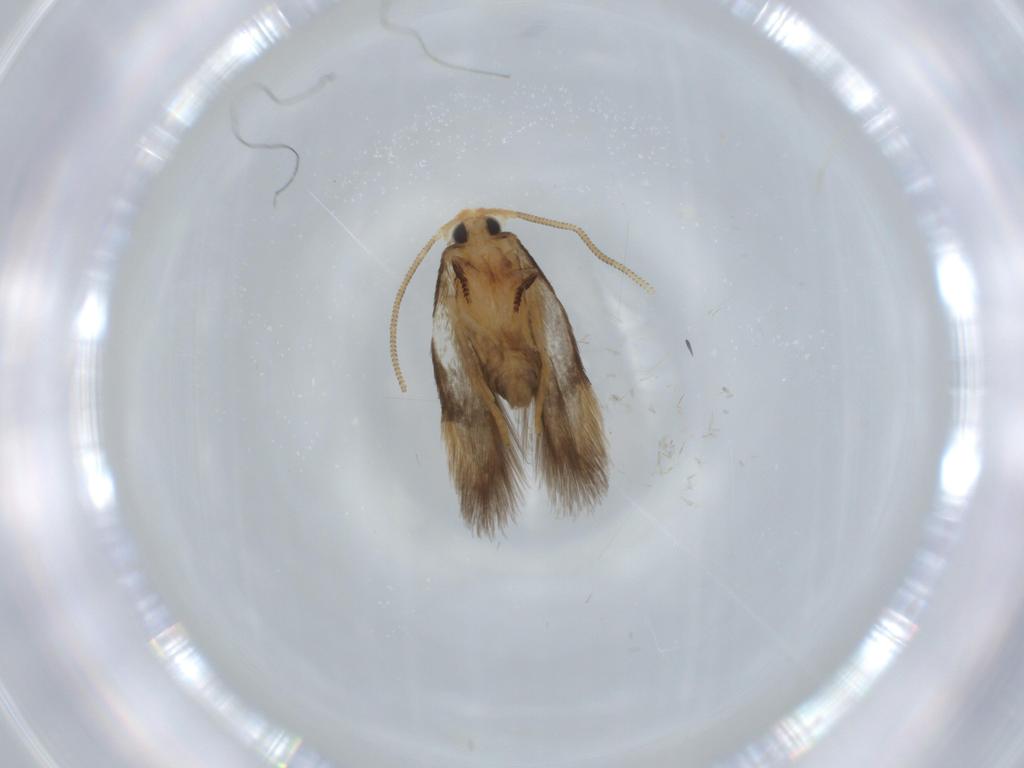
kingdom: Animalia
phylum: Arthropoda
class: Insecta
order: Lepidoptera
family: Nepticulidae
